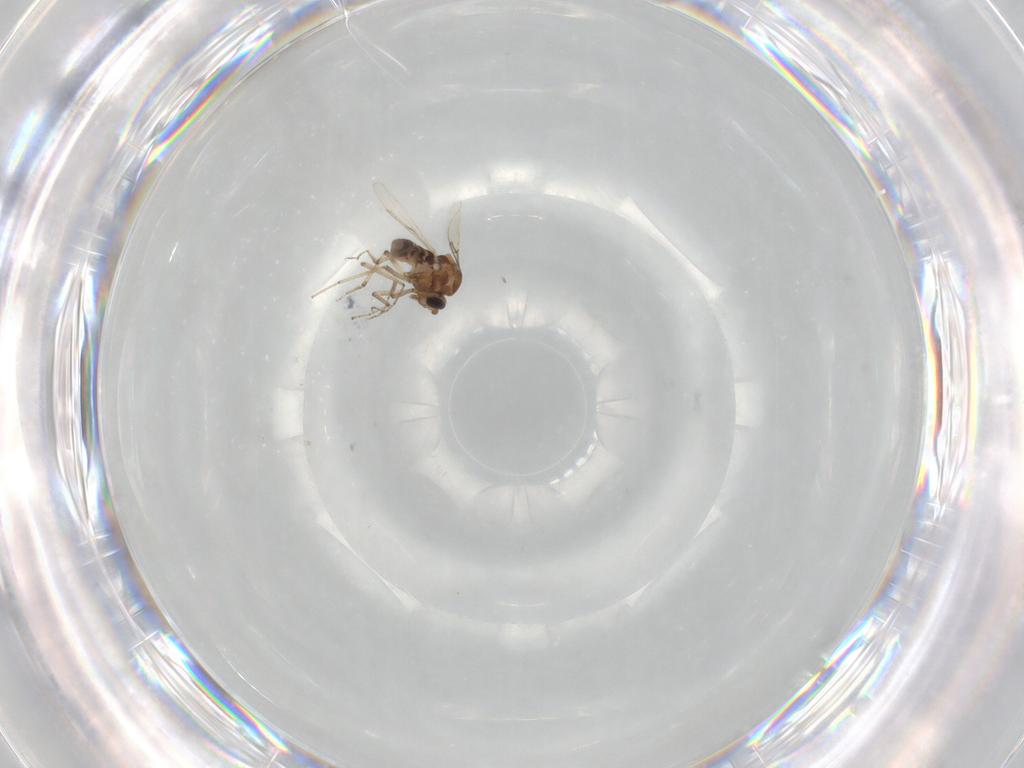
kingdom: Animalia
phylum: Arthropoda
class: Insecta
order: Diptera
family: Ceratopogonidae
